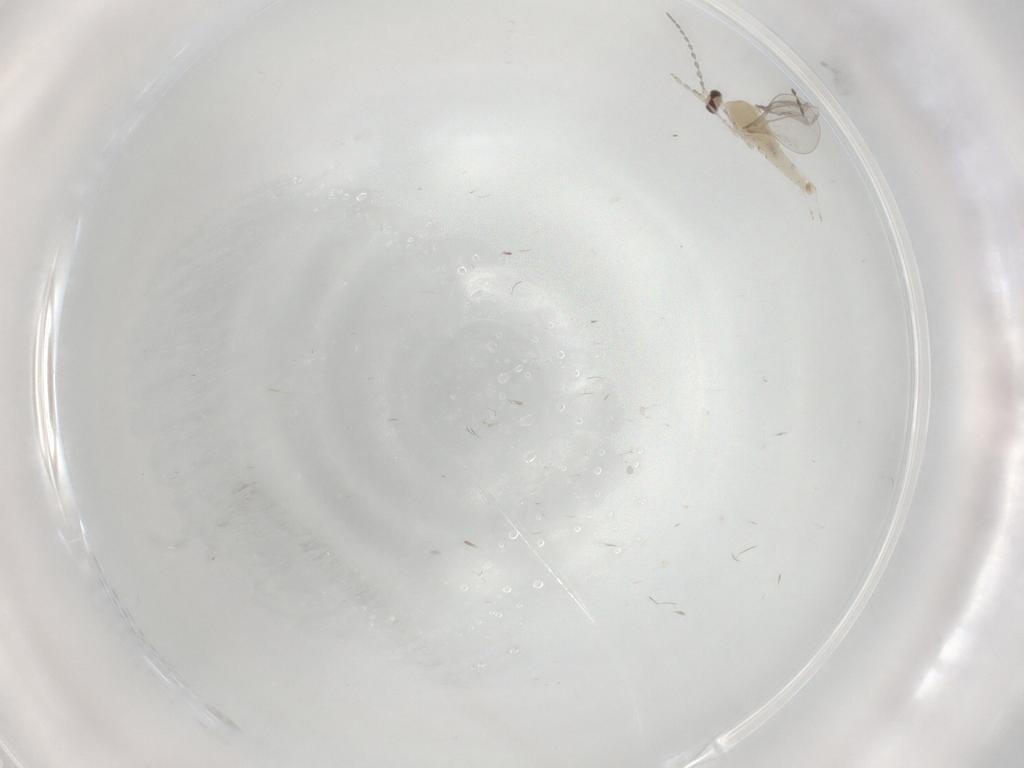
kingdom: Animalia
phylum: Arthropoda
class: Insecta
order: Diptera
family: Cecidomyiidae
